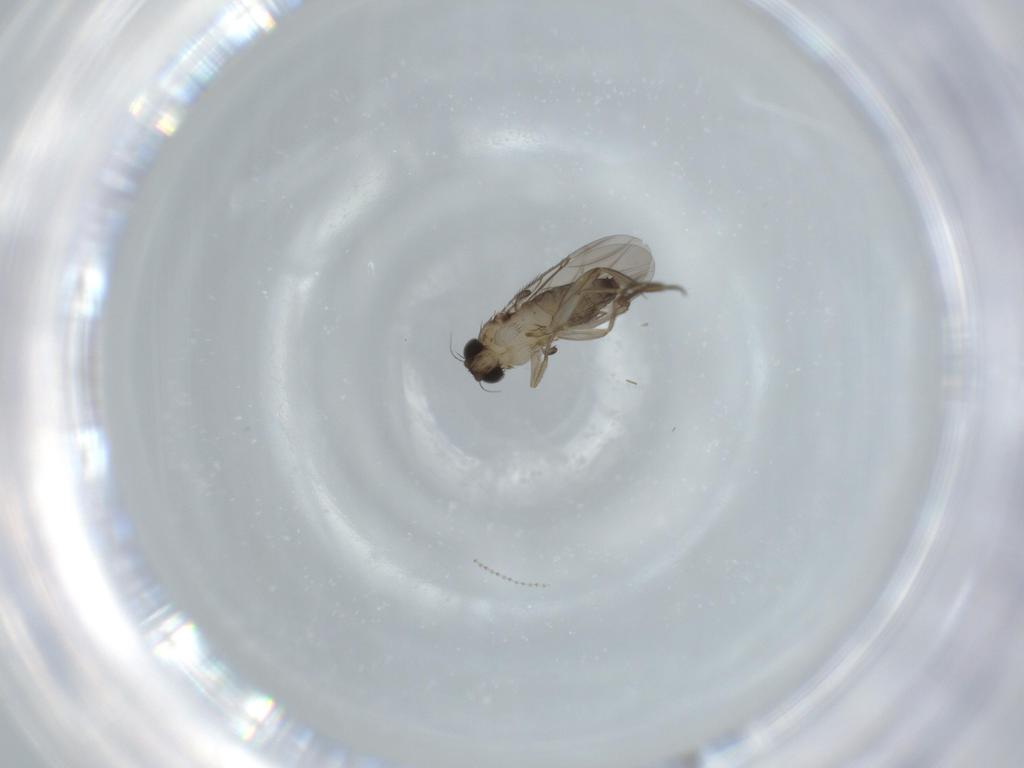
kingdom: Animalia
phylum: Arthropoda
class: Insecta
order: Diptera
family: Phoridae
